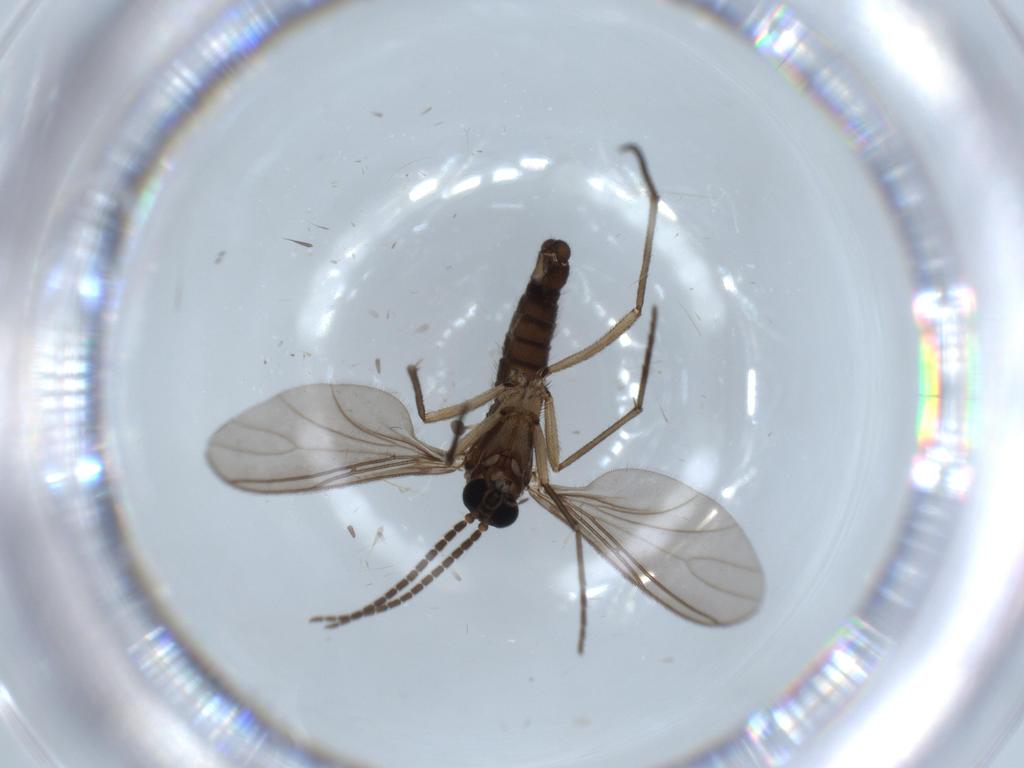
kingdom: Animalia
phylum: Arthropoda
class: Insecta
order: Diptera
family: Sciaridae
